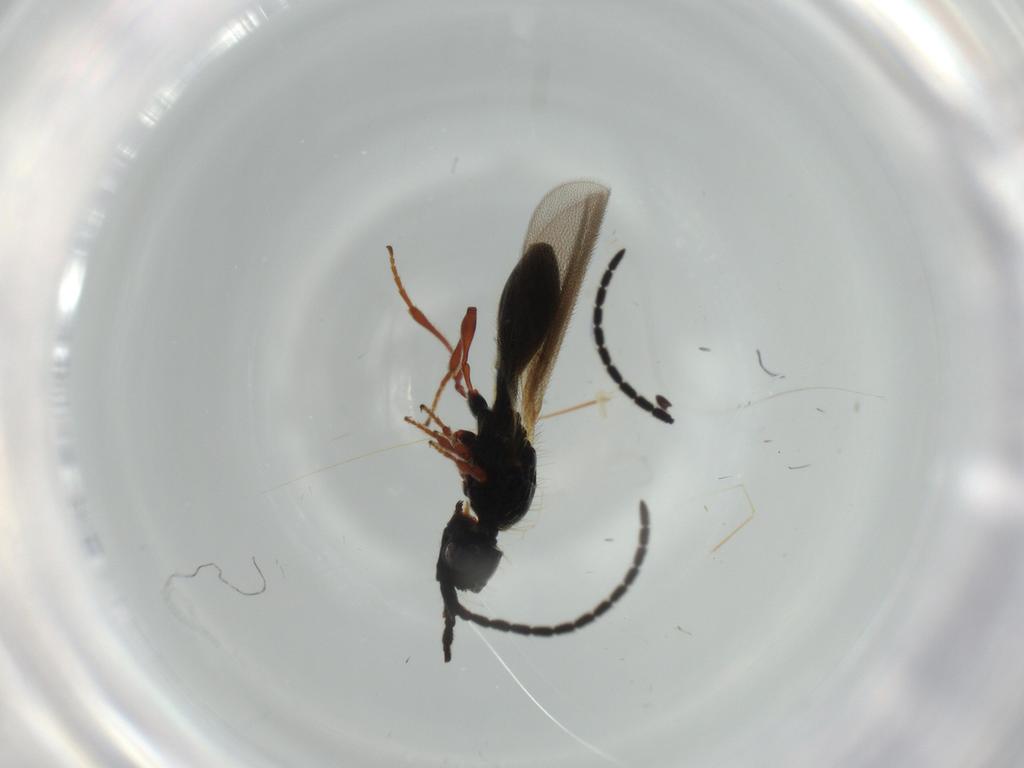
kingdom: Animalia
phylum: Arthropoda
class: Insecta
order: Hymenoptera
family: Diapriidae
